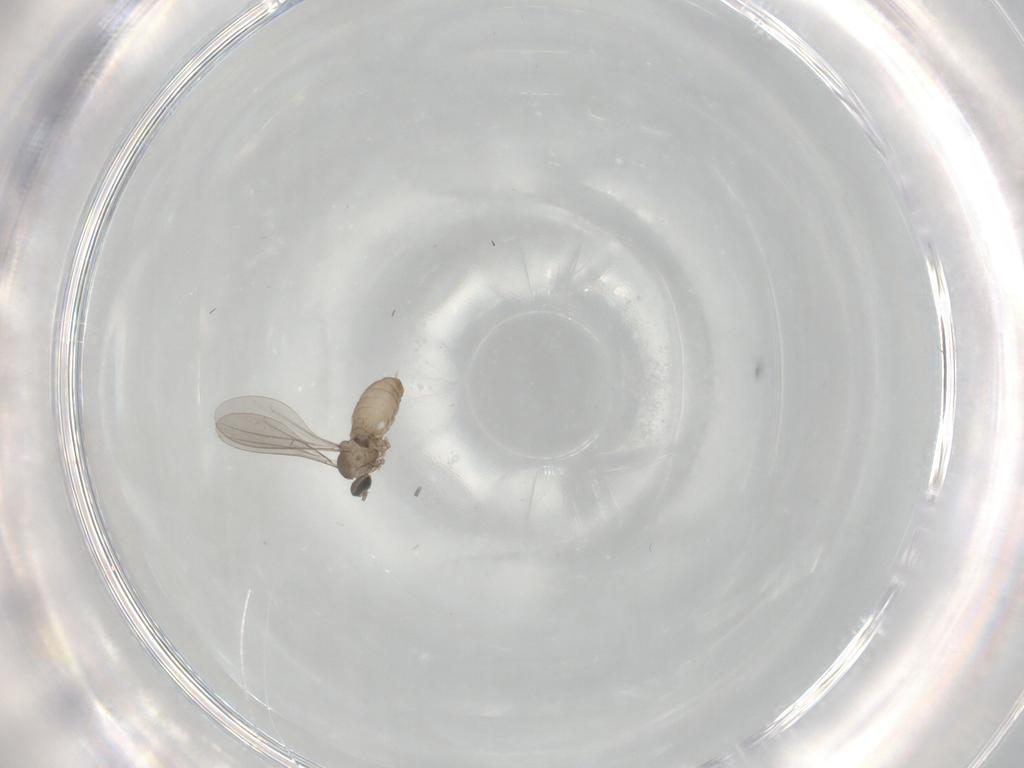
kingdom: Animalia
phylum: Arthropoda
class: Insecta
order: Diptera
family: Sciaridae
